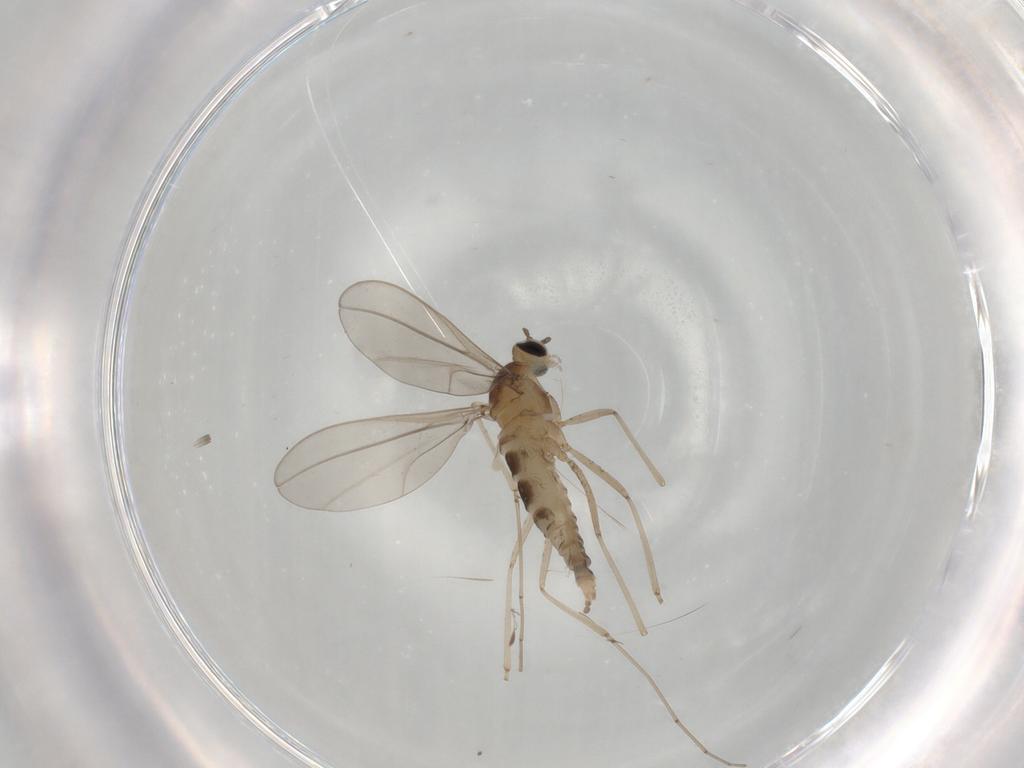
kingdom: Animalia
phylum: Arthropoda
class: Insecta
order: Diptera
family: Cecidomyiidae
